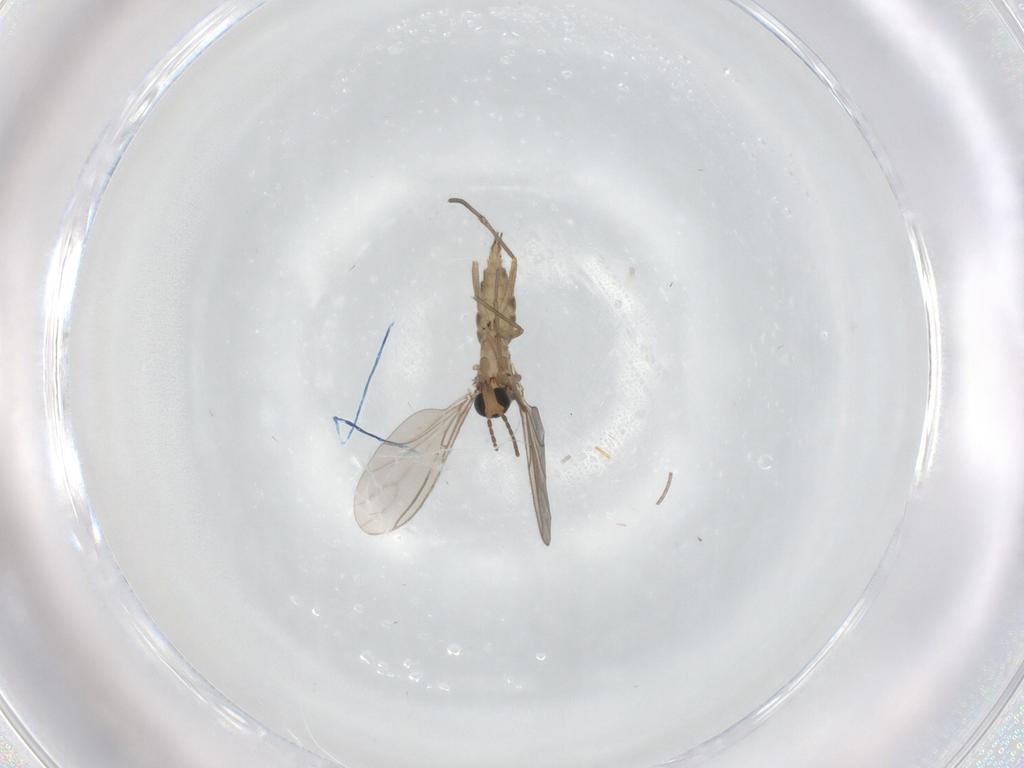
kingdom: Animalia
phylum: Arthropoda
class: Insecta
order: Diptera
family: Sciaridae
